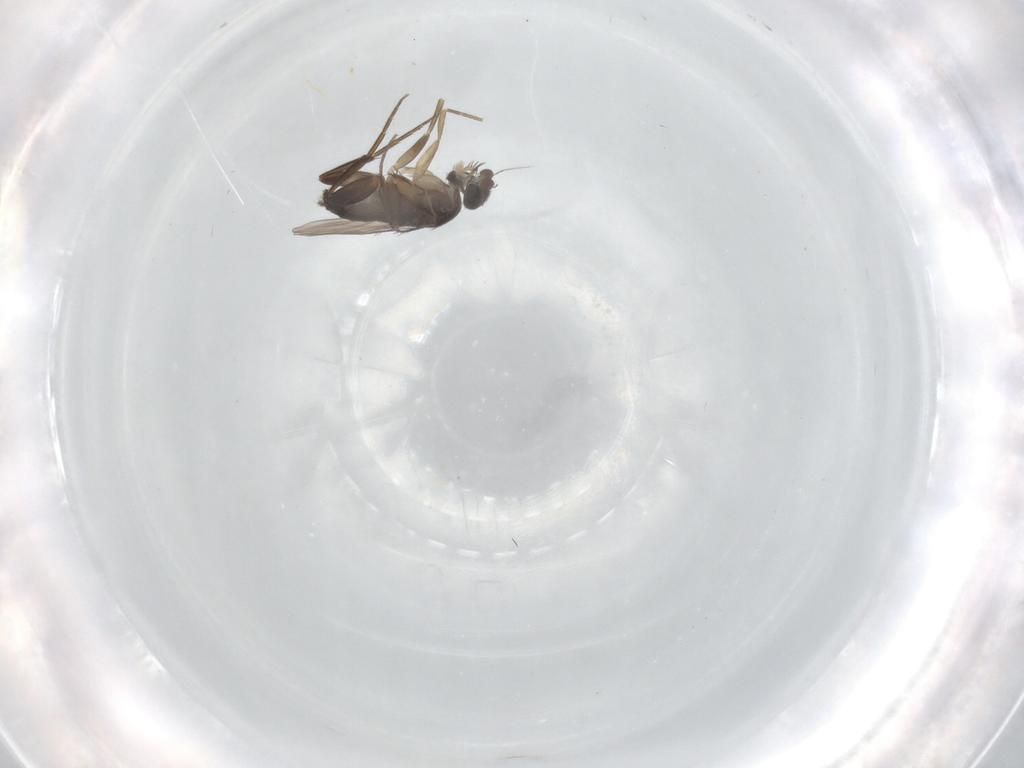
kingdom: Animalia
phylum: Arthropoda
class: Insecta
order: Diptera
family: Phoridae
